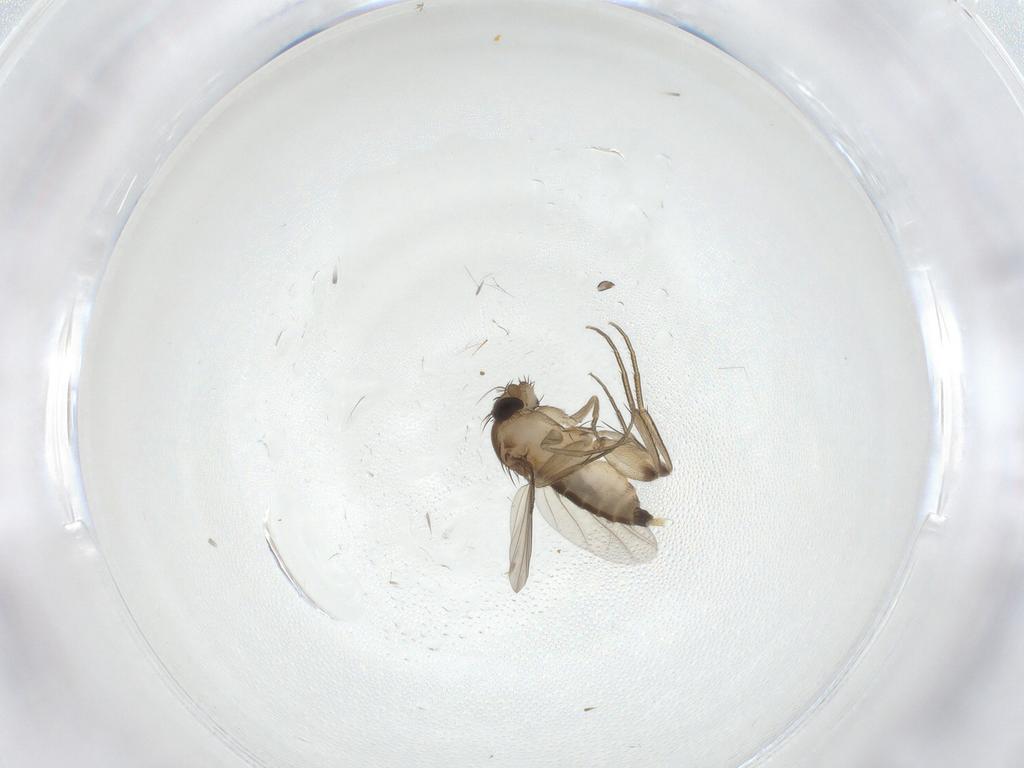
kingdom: Animalia
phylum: Arthropoda
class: Insecta
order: Diptera
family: Phoridae
